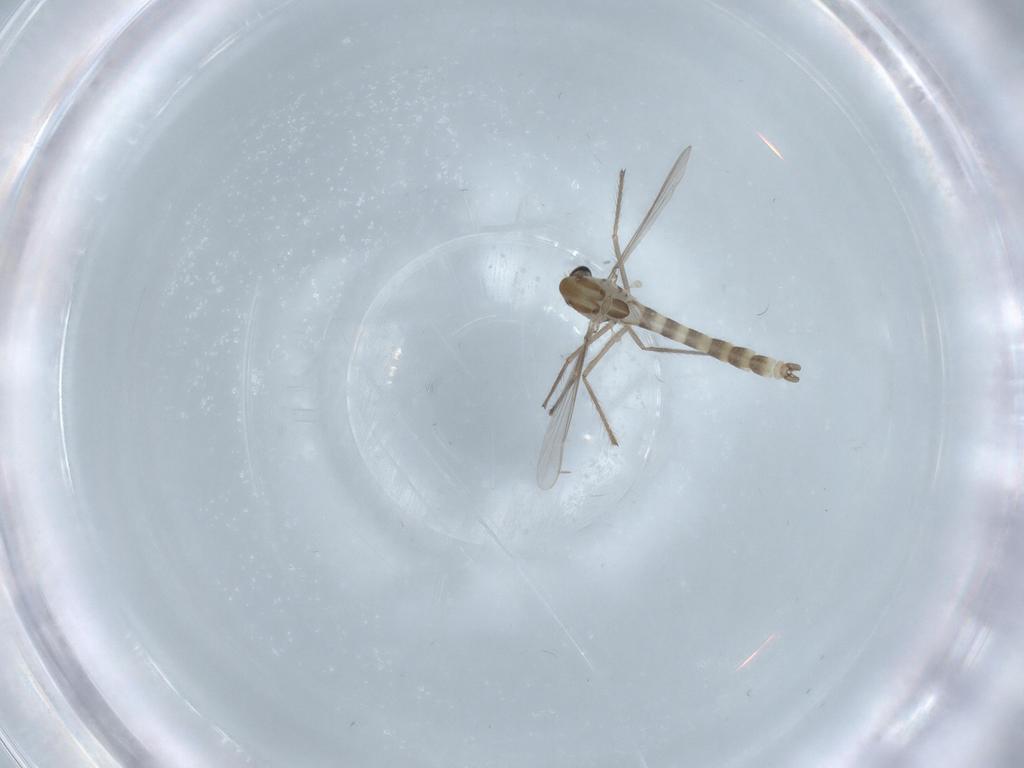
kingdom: Animalia
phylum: Arthropoda
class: Insecta
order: Diptera
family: Chironomidae
